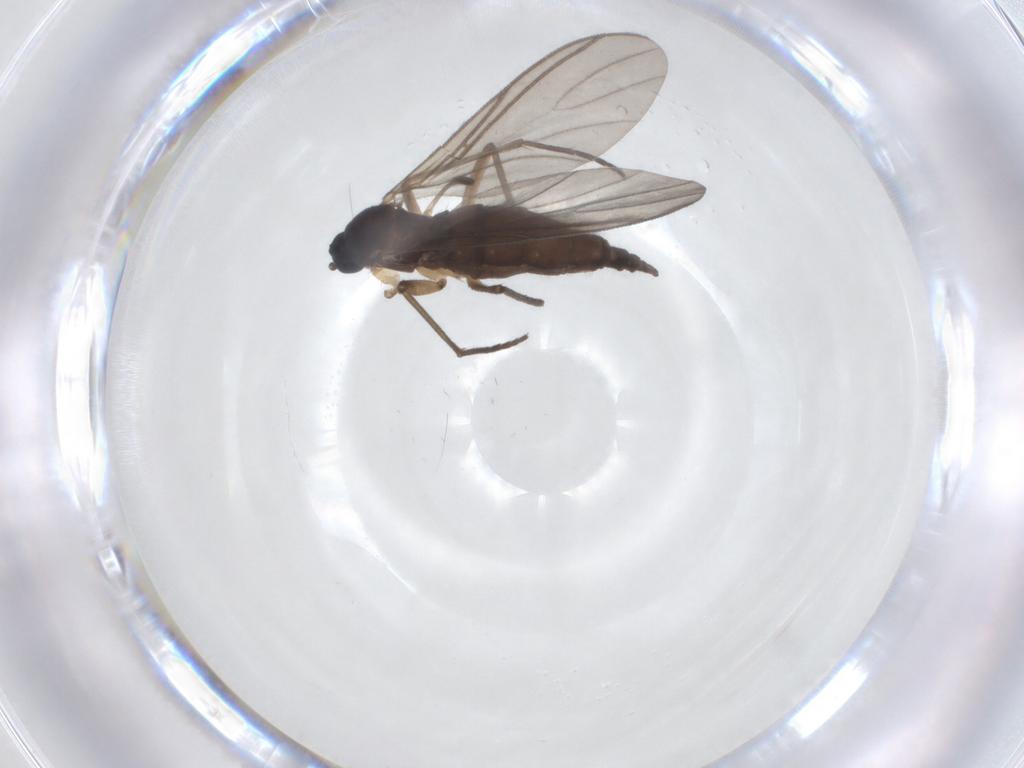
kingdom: Animalia
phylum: Arthropoda
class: Insecta
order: Diptera
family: Sciaridae
